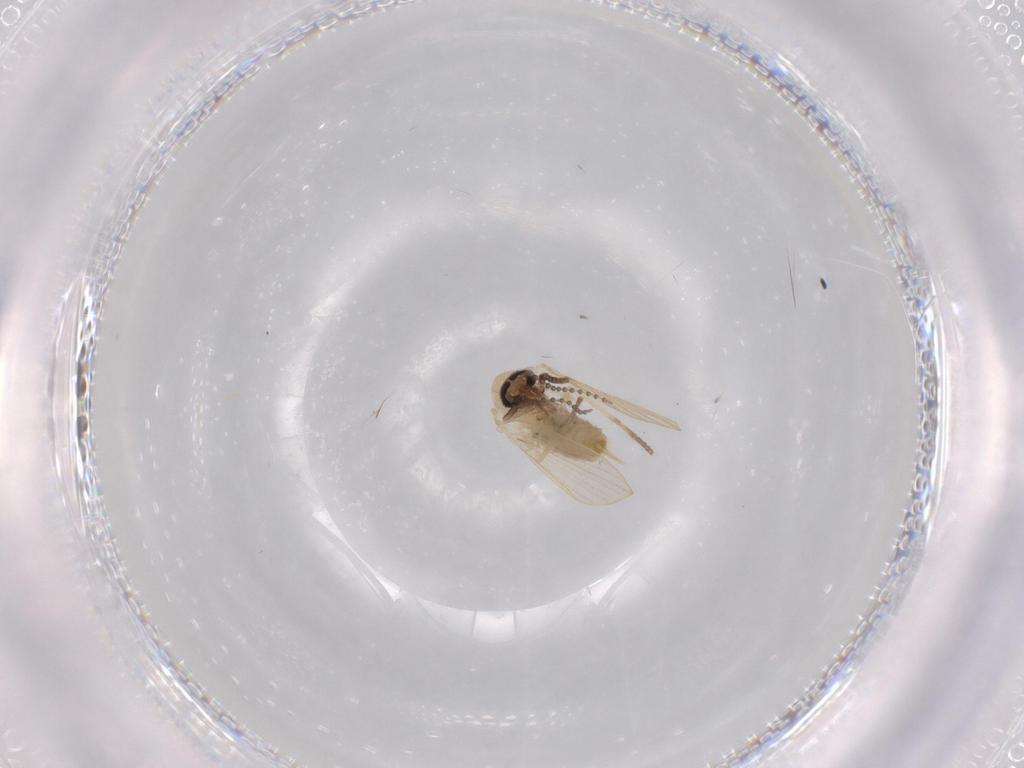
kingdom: Animalia
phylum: Arthropoda
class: Insecta
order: Diptera
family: Psychodidae
